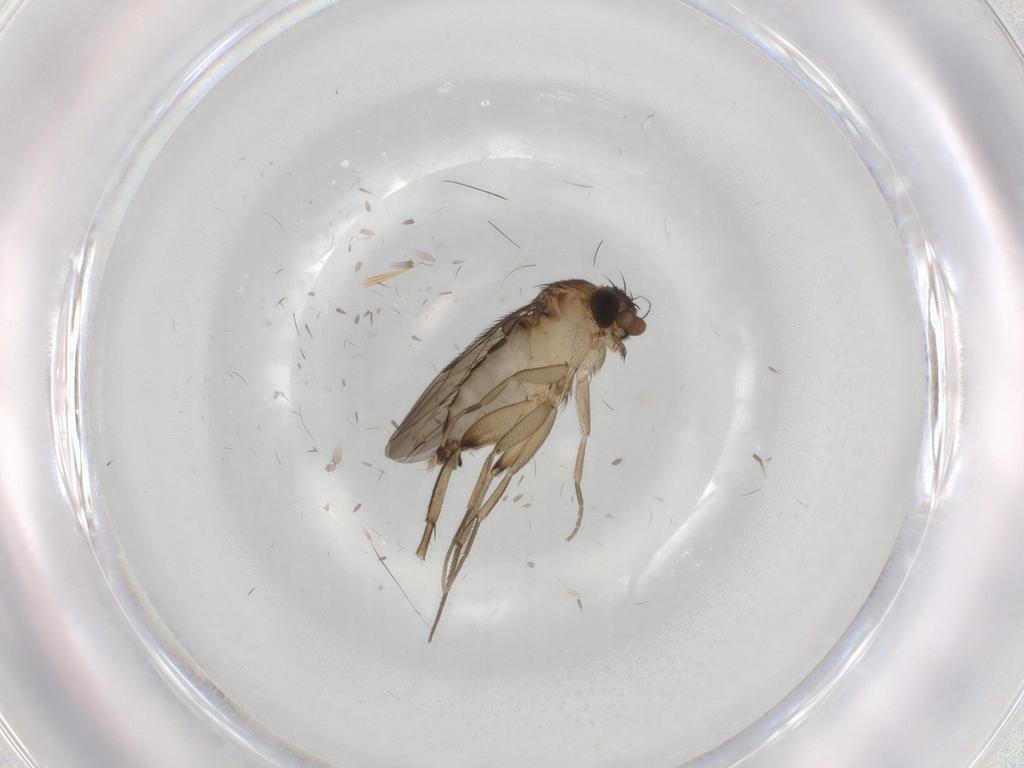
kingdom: Animalia
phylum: Arthropoda
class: Insecta
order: Diptera
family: Phoridae
